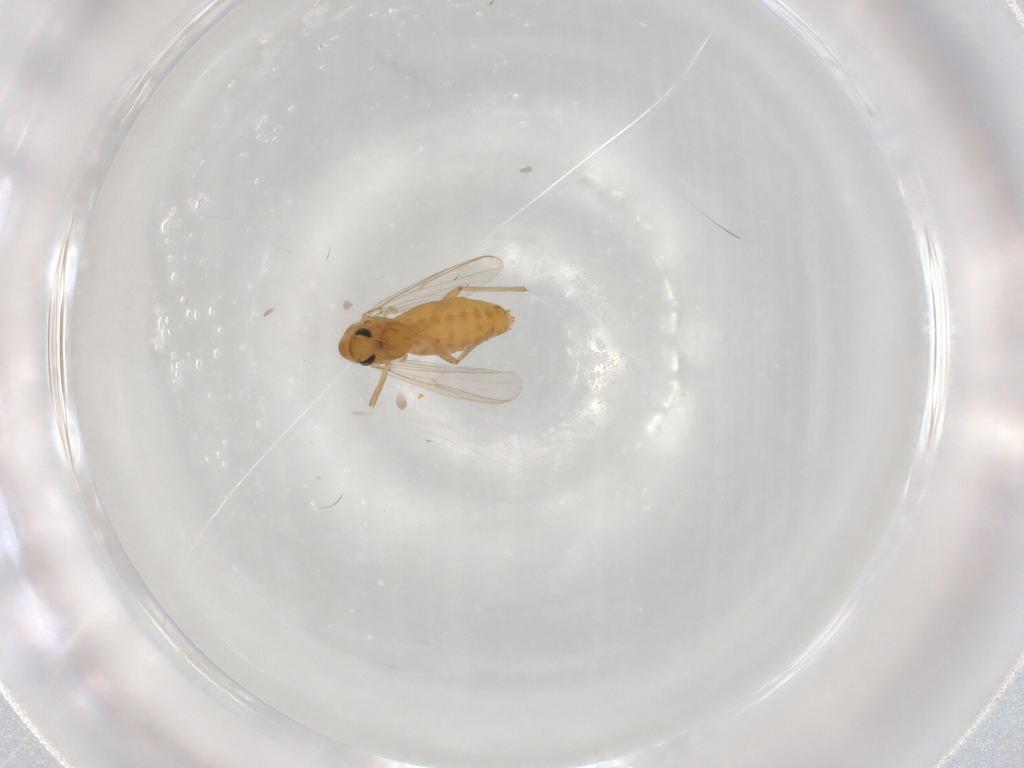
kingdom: Animalia
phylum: Arthropoda
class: Insecta
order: Diptera
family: Chironomidae
